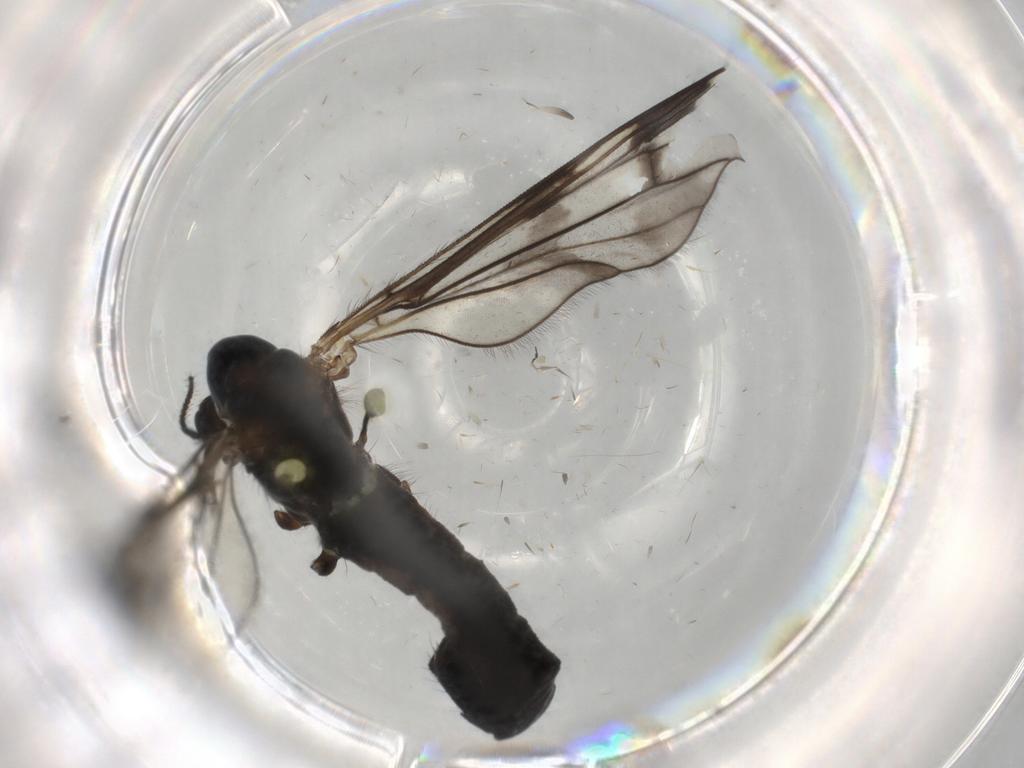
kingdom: Animalia
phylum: Arthropoda
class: Insecta
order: Diptera
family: Limoniidae
